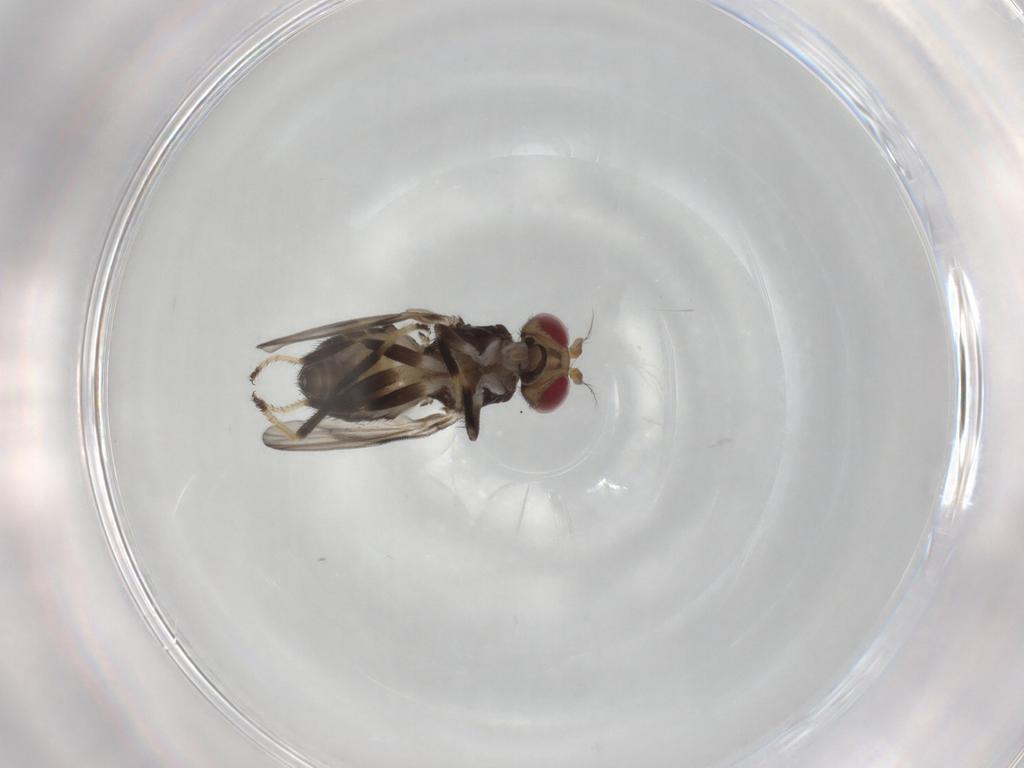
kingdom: Animalia
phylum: Arthropoda
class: Insecta
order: Diptera
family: Periscelididae
